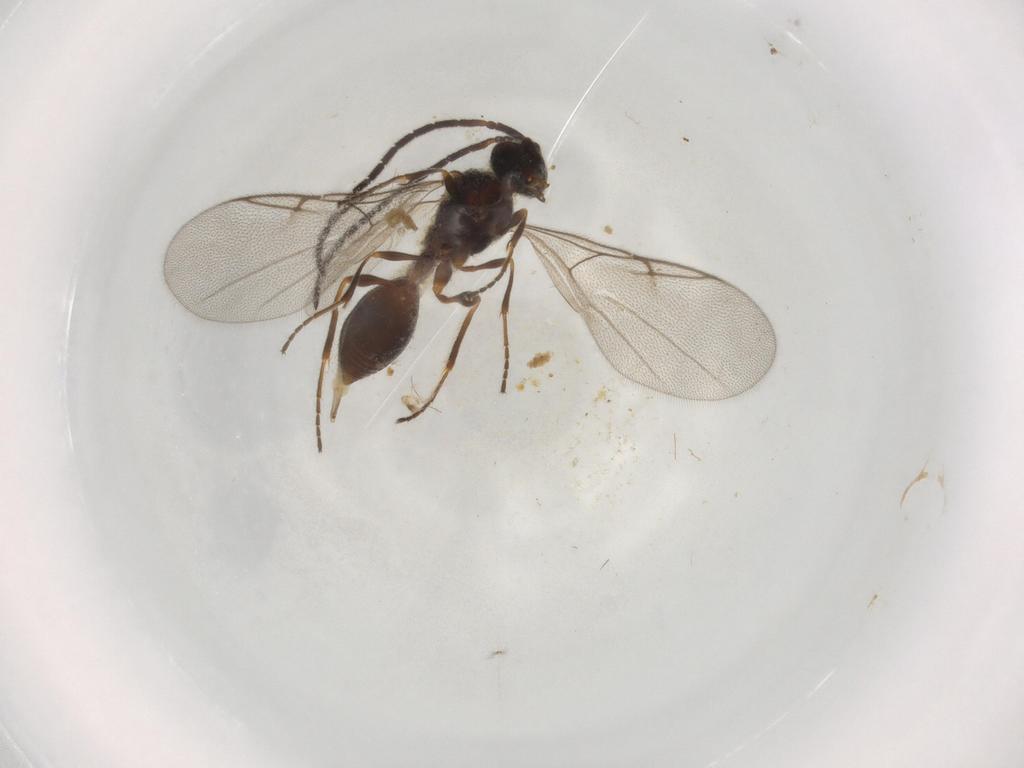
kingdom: Animalia
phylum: Arthropoda
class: Insecta
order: Hymenoptera
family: Diapriidae
